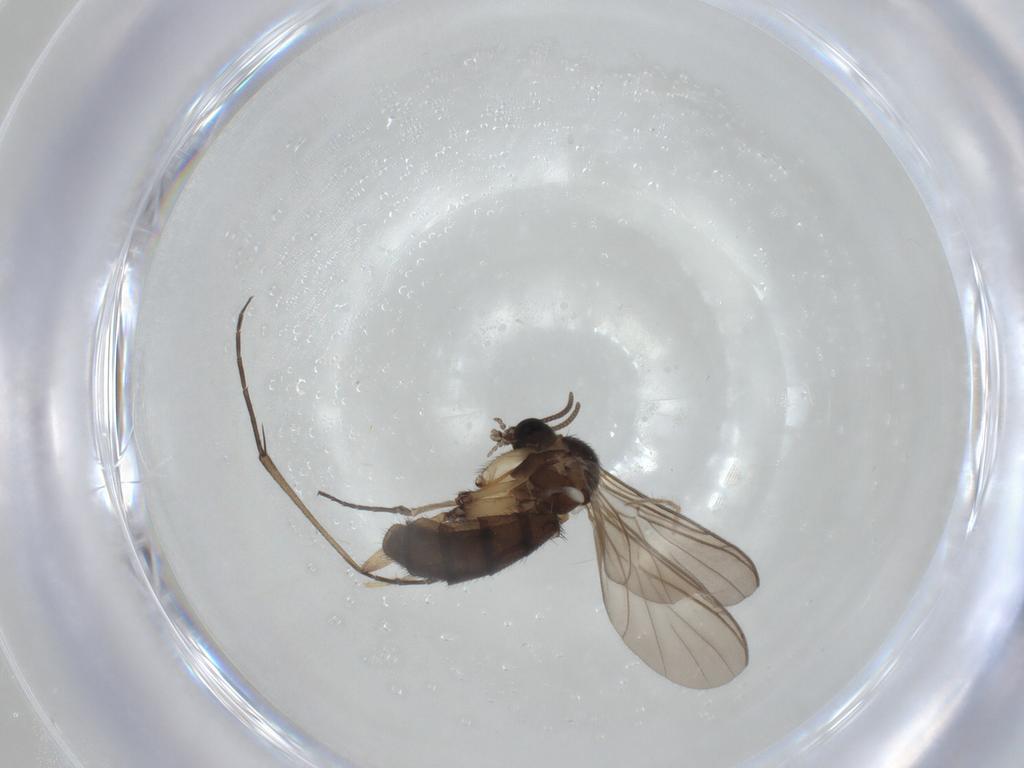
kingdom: Animalia
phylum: Arthropoda
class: Insecta
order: Diptera
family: Keroplatidae
